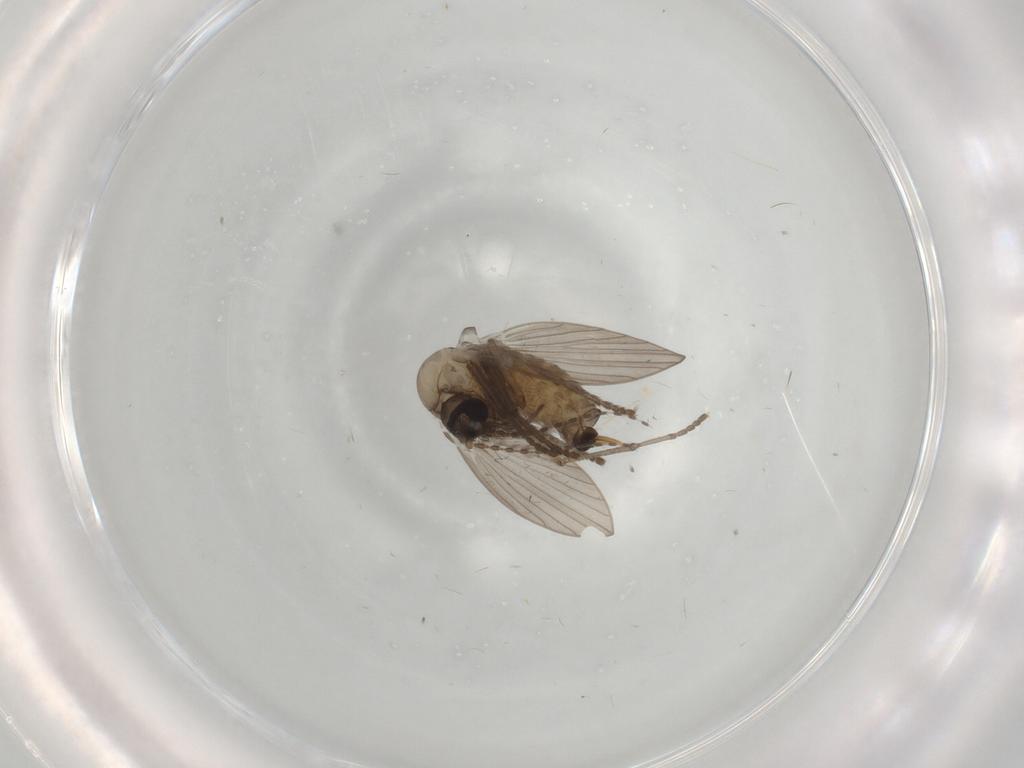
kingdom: Animalia
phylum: Arthropoda
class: Insecta
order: Diptera
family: Psychodidae
